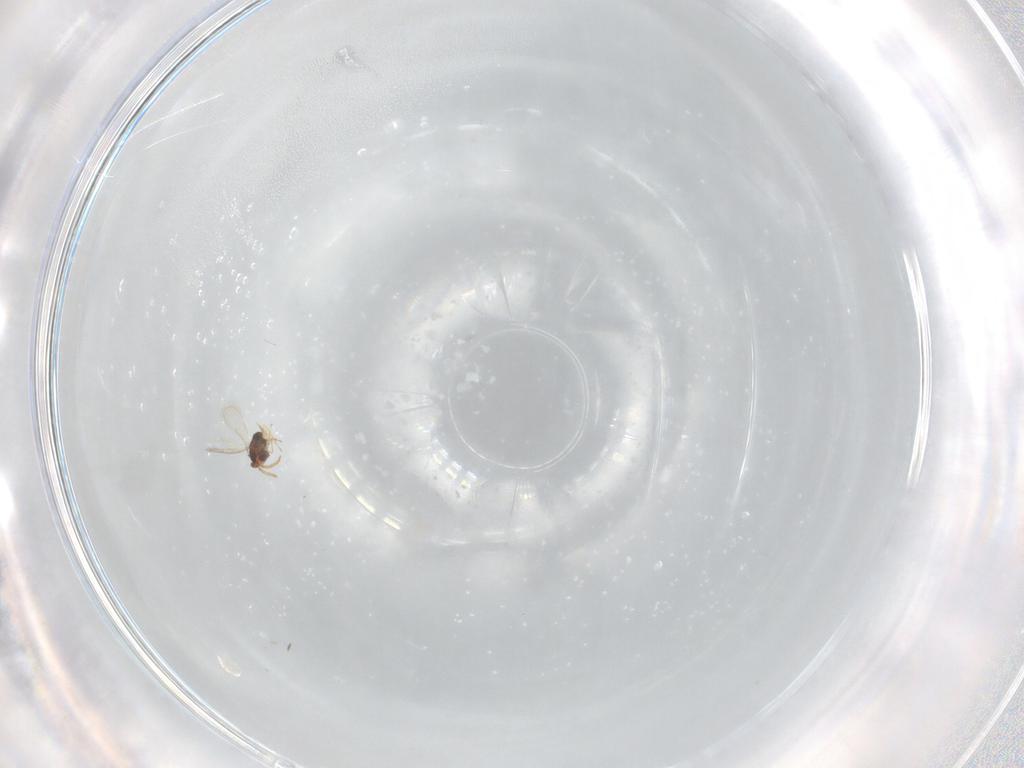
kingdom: Animalia
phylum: Arthropoda
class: Insecta
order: Hymenoptera
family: Aphelinidae
